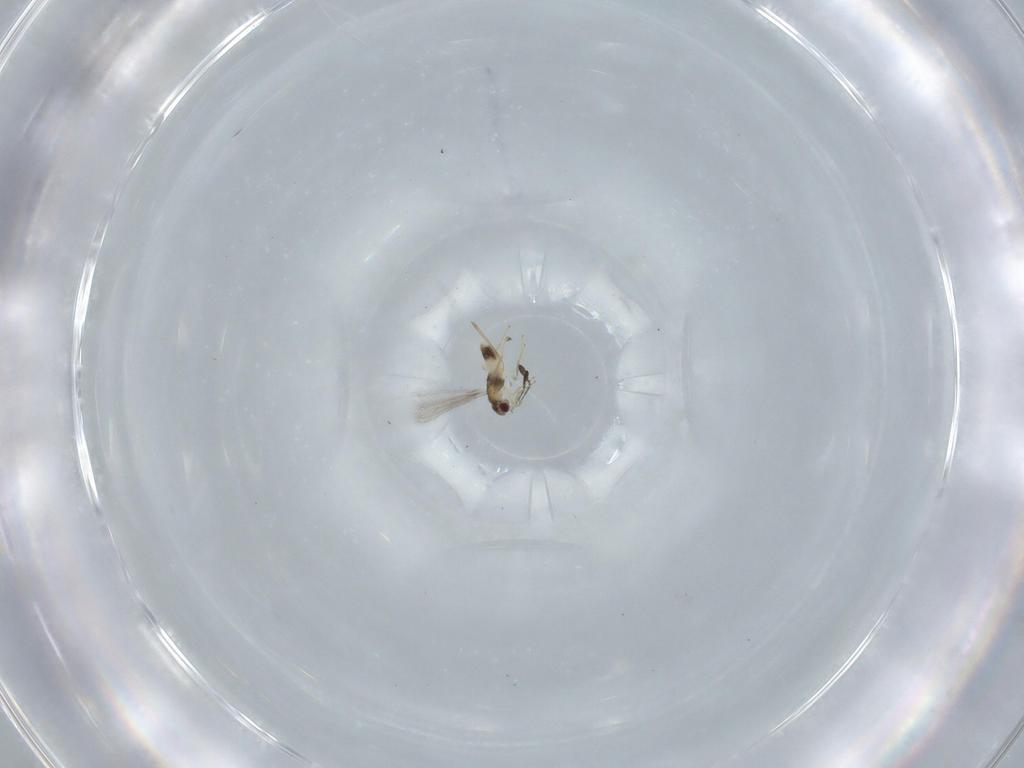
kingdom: Animalia
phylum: Arthropoda
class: Insecta
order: Hymenoptera
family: Mymaridae
